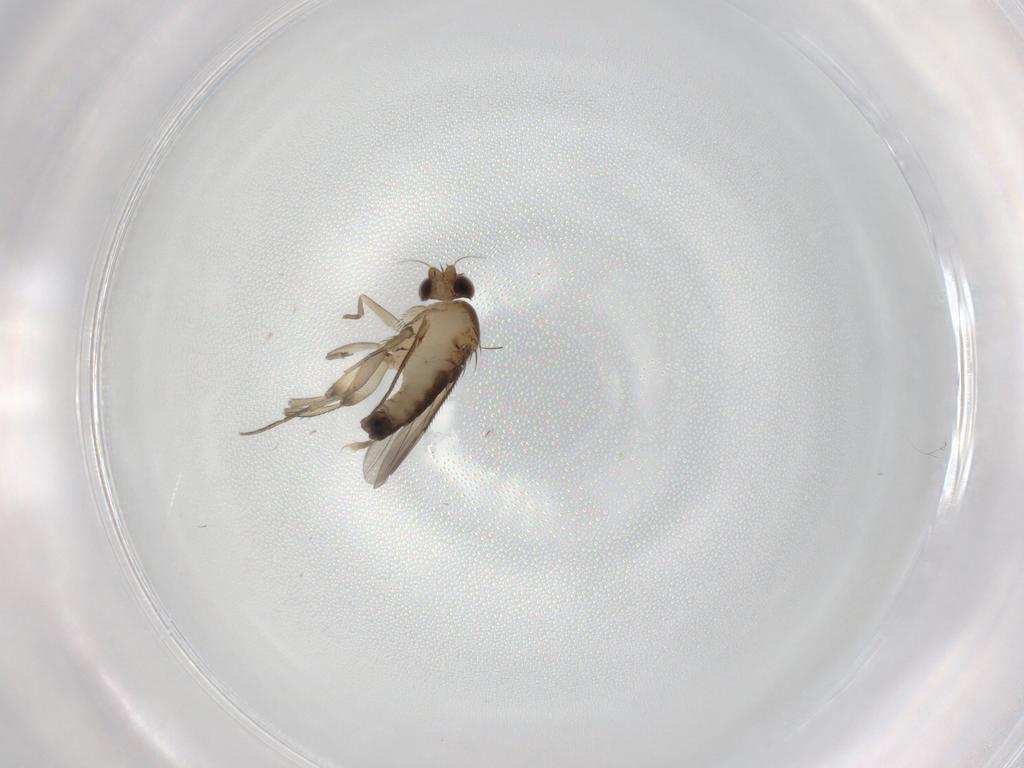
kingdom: Animalia
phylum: Arthropoda
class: Insecta
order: Diptera
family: Phoridae
